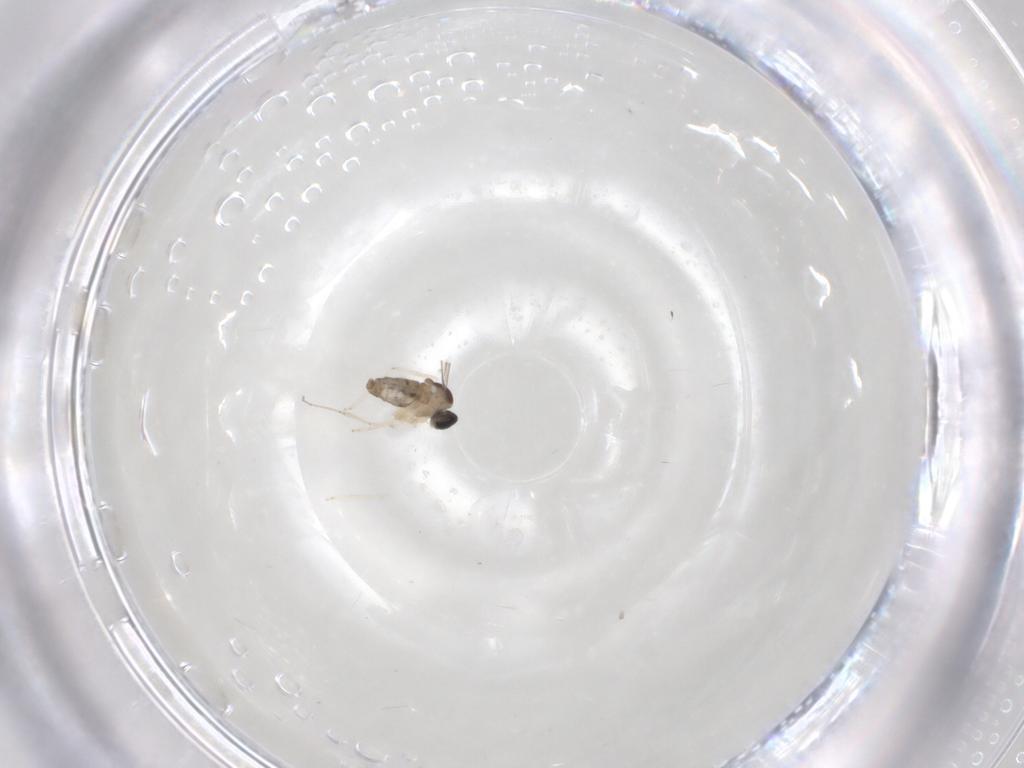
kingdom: Animalia
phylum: Arthropoda
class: Insecta
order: Diptera
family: Cecidomyiidae
